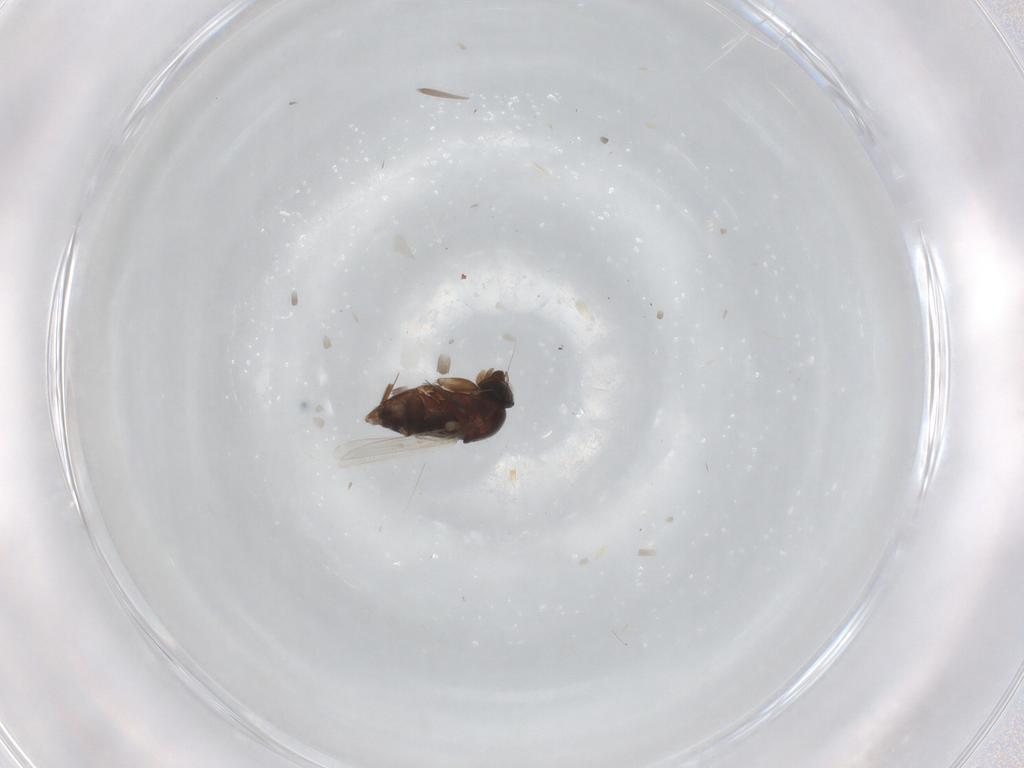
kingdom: Animalia
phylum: Arthropoda
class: Insecta
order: Diptera
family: Phoridae
